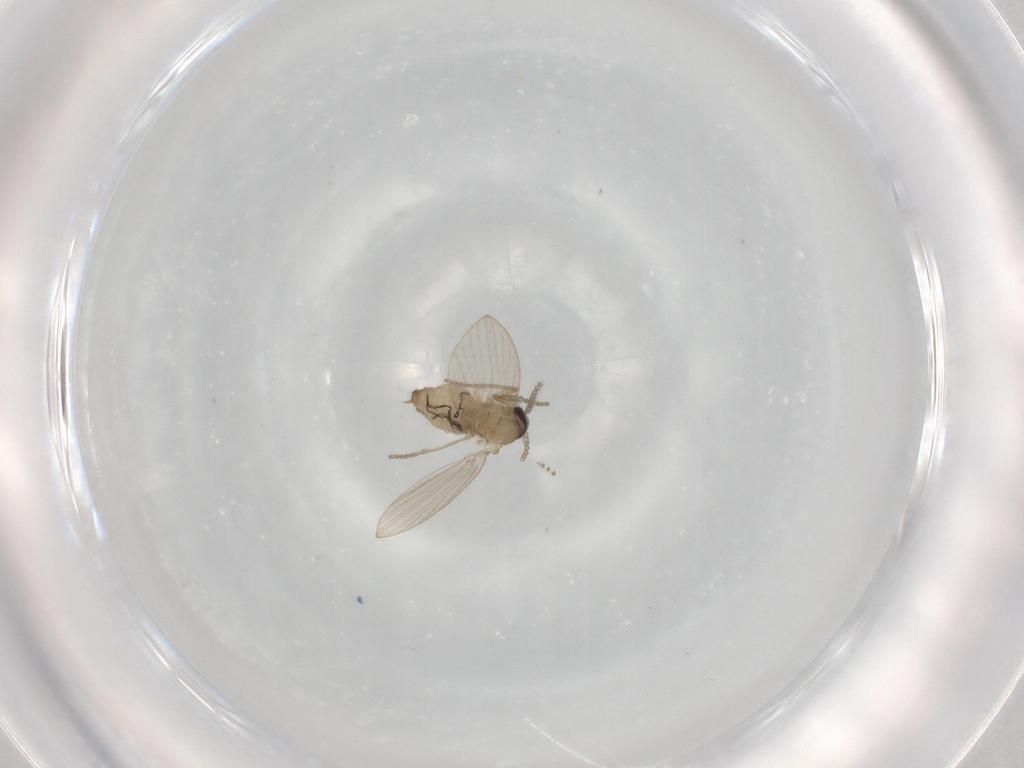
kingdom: Animalia
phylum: Arthropoda
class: Insecta
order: Diptera
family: Psychodidae
